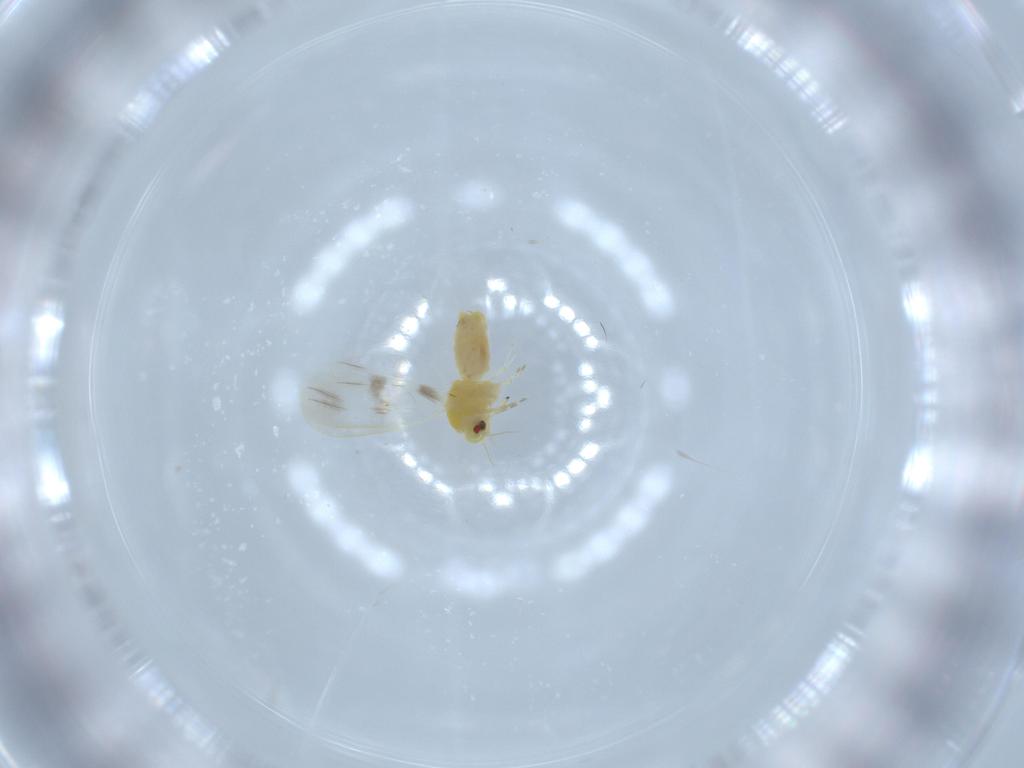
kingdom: Animalia
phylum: Arthropoda
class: Insecta
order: Hemiptera
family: Aleyrodidae
